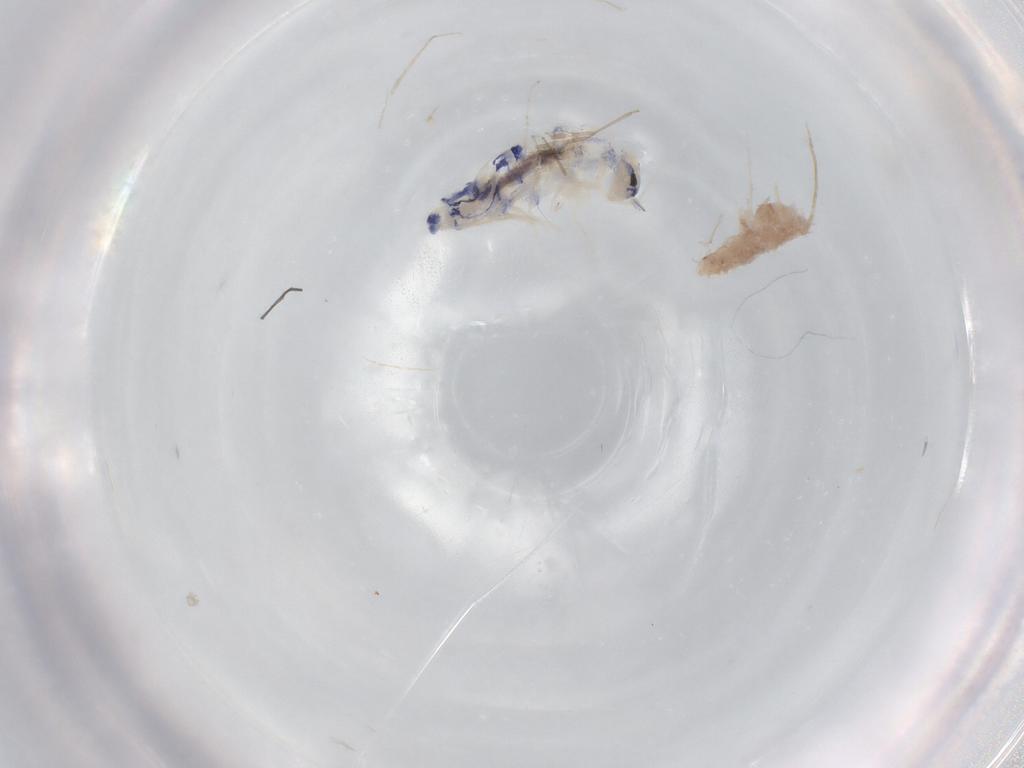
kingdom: Animalia
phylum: Arthropoda
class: Collembola
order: Entomobryomorpha
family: Entomobryidae
